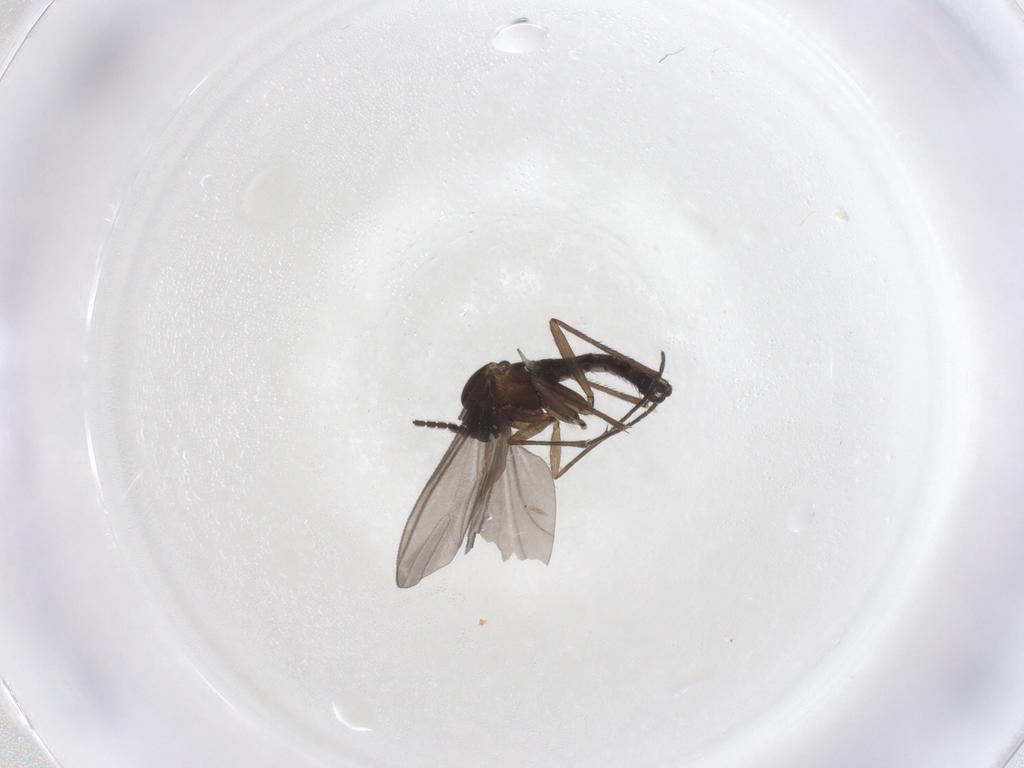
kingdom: Animalia
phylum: Arthropoda
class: Insecta
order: Diptera
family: Sciaridae
